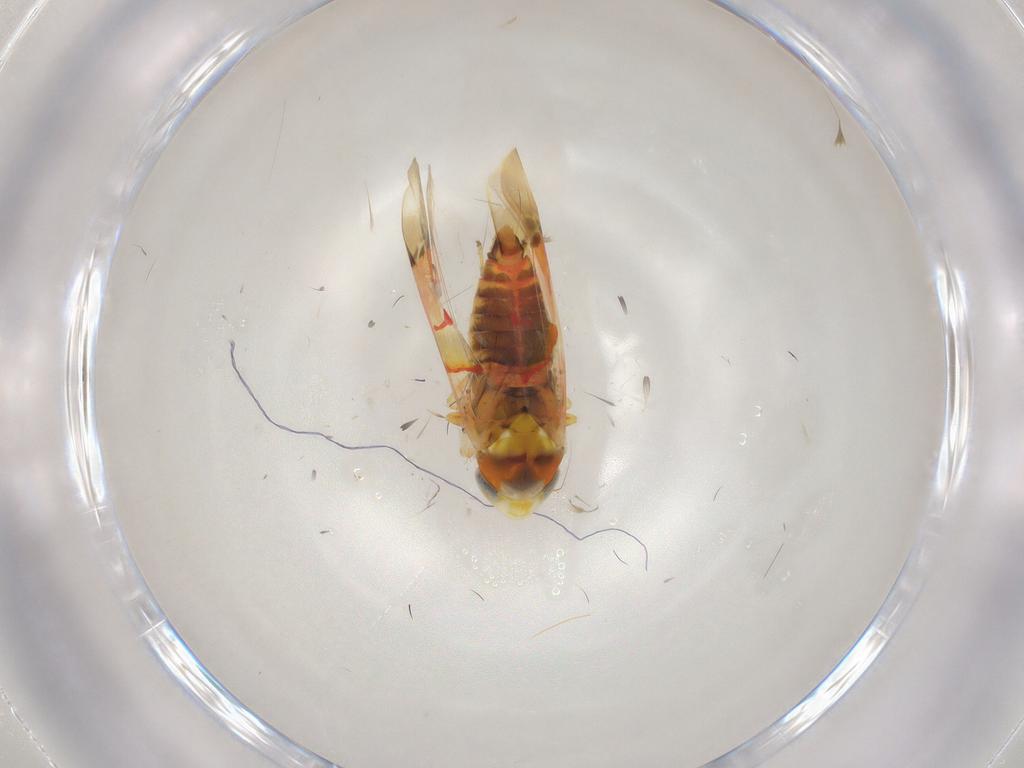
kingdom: Animalia
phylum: Arthropoda
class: Insecta
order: Hemiptera
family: Cicadellidae
